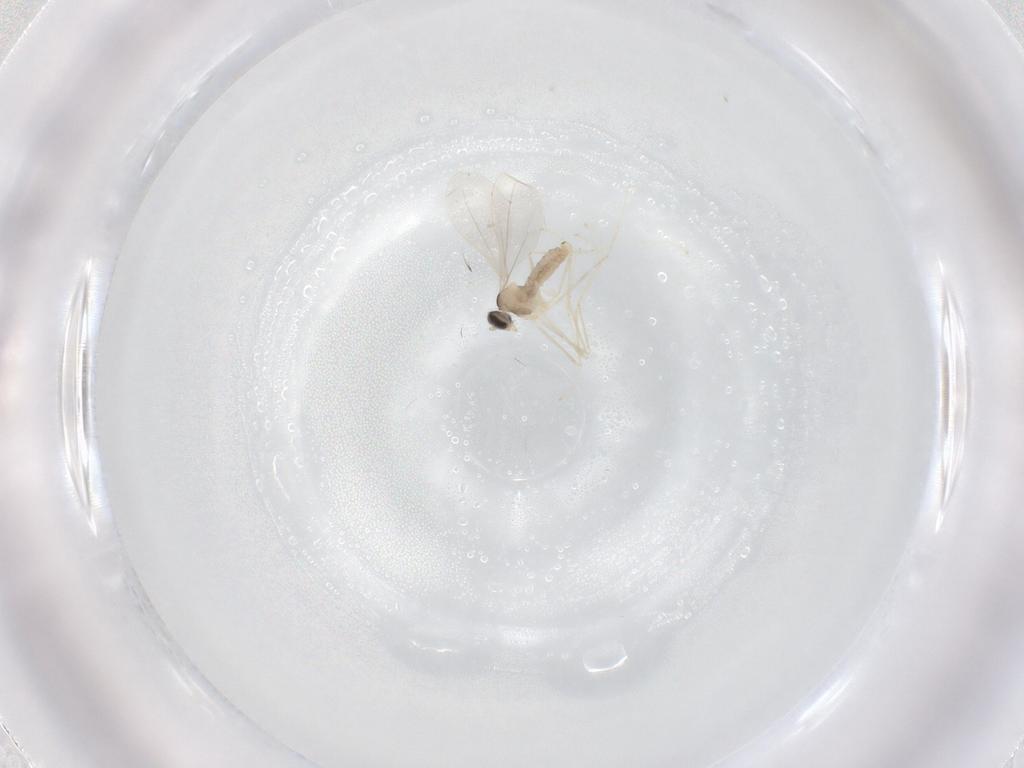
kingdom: Animalia
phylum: Arthropoda
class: Insecta
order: Diptera
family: Cecidomyiidae
